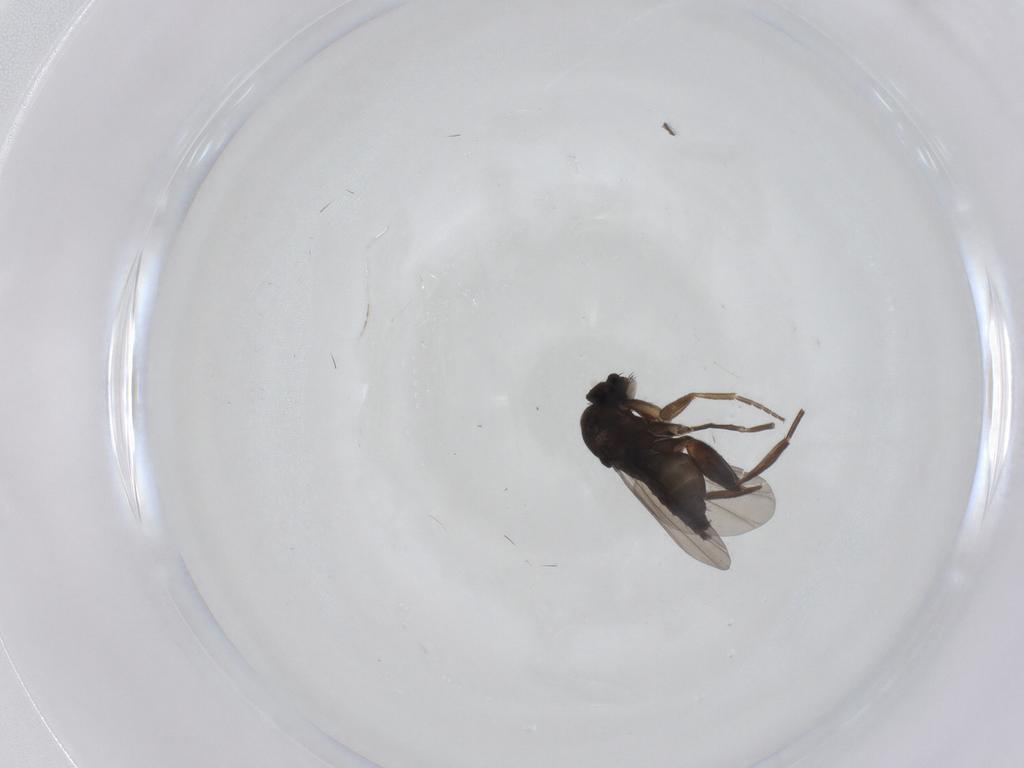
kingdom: Animalia
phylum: Arthropoda
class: Insecta
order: Diptera
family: Phoridae
